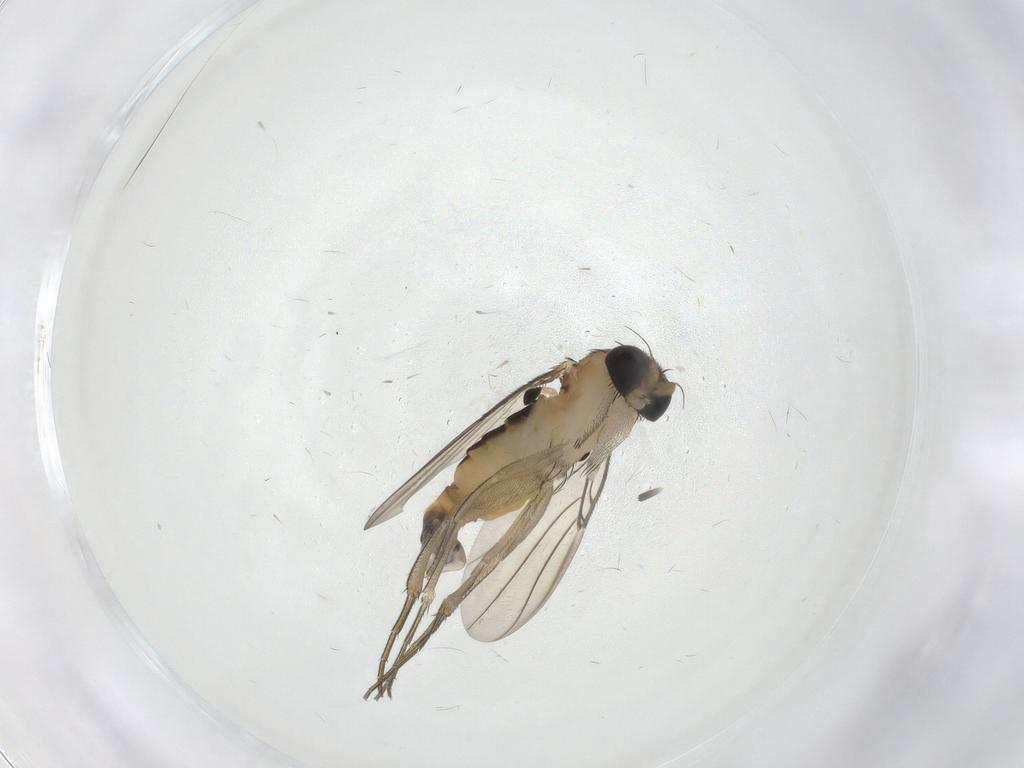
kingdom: Animalia
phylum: Arthropoda
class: Insecta
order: Diptera
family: Phoridae
